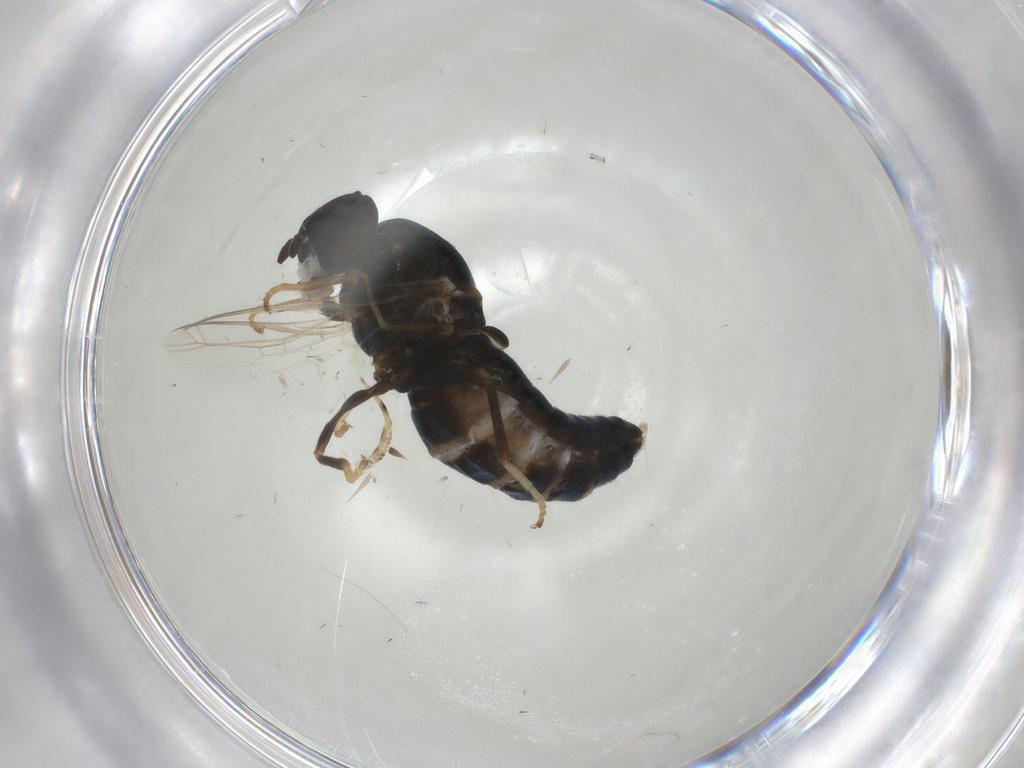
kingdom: Animalia
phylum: Arthropoda
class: Insecta
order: Diptera
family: Scenopinidae
